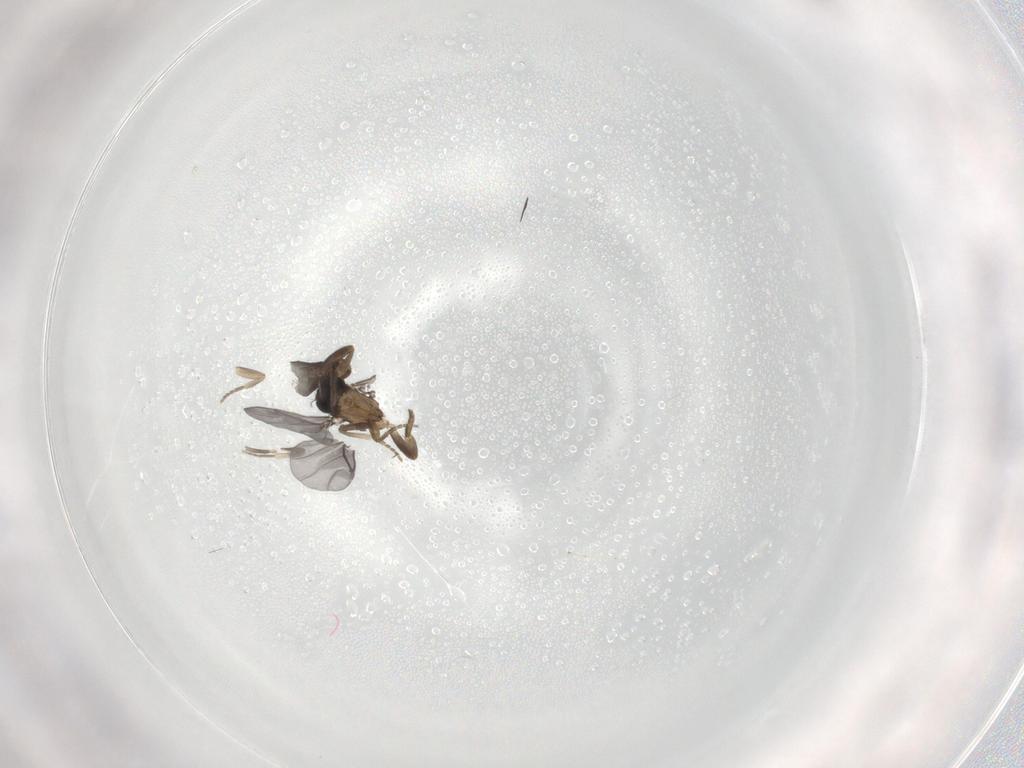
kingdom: Animalia
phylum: Arthropoda
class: Insecta
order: Diptera
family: Cecidomyiidae
